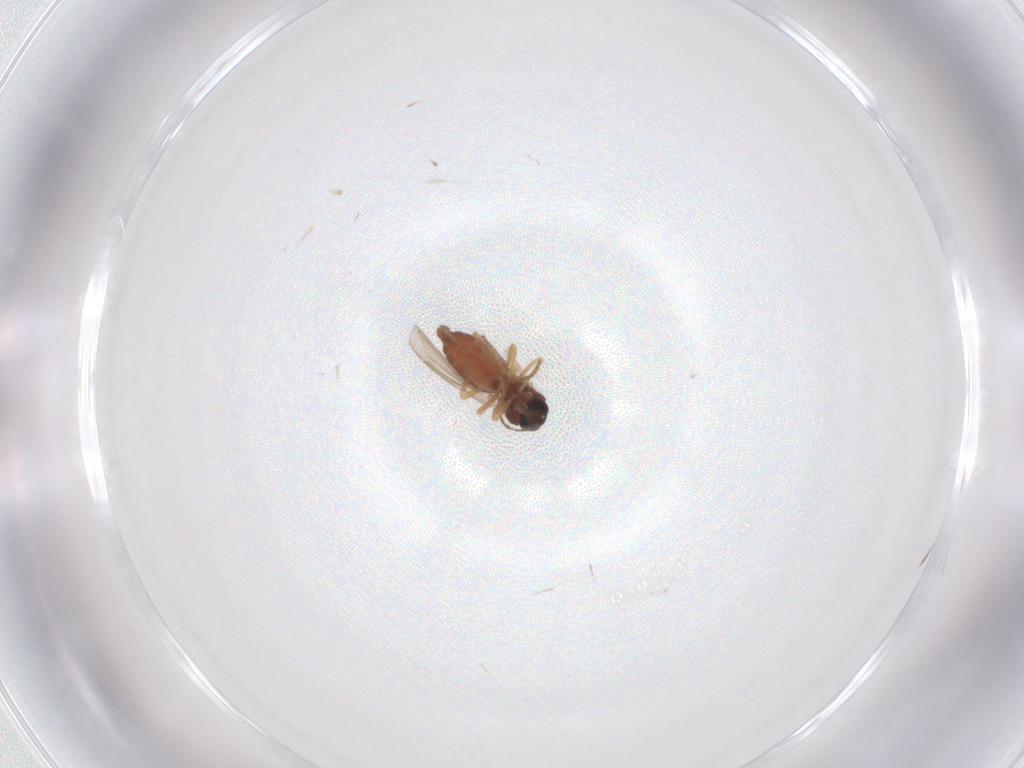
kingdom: Animalia
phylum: Arthropoda
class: Insecta
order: Diptera
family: Ceratopogonidae
